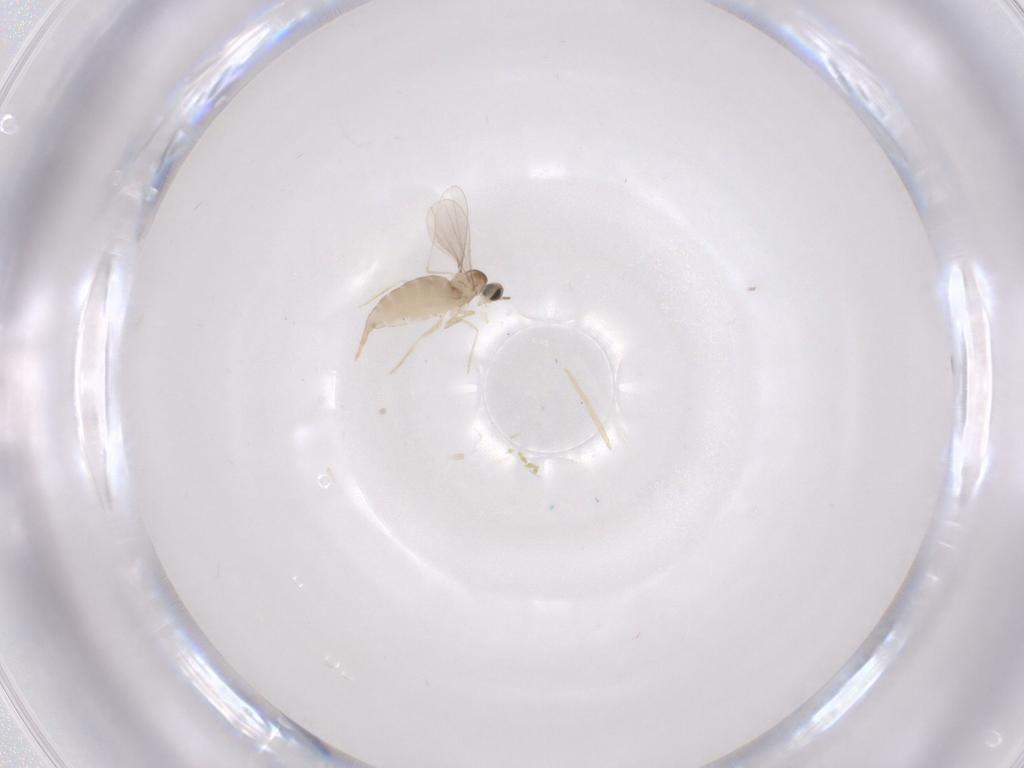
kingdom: Animalia
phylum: Arthropoda
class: Insecta
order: Diptera
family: Cecidomyiidae
